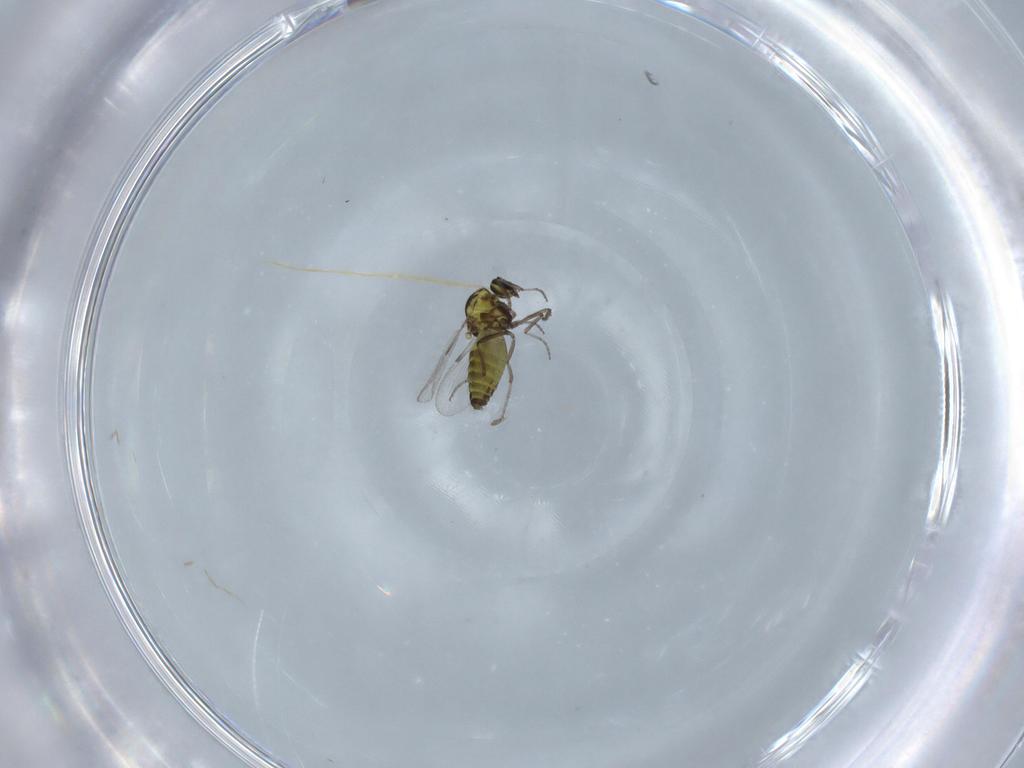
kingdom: Animalia
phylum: Arthropoda
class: Insecta
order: Diptera
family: Ceratopogonidae
